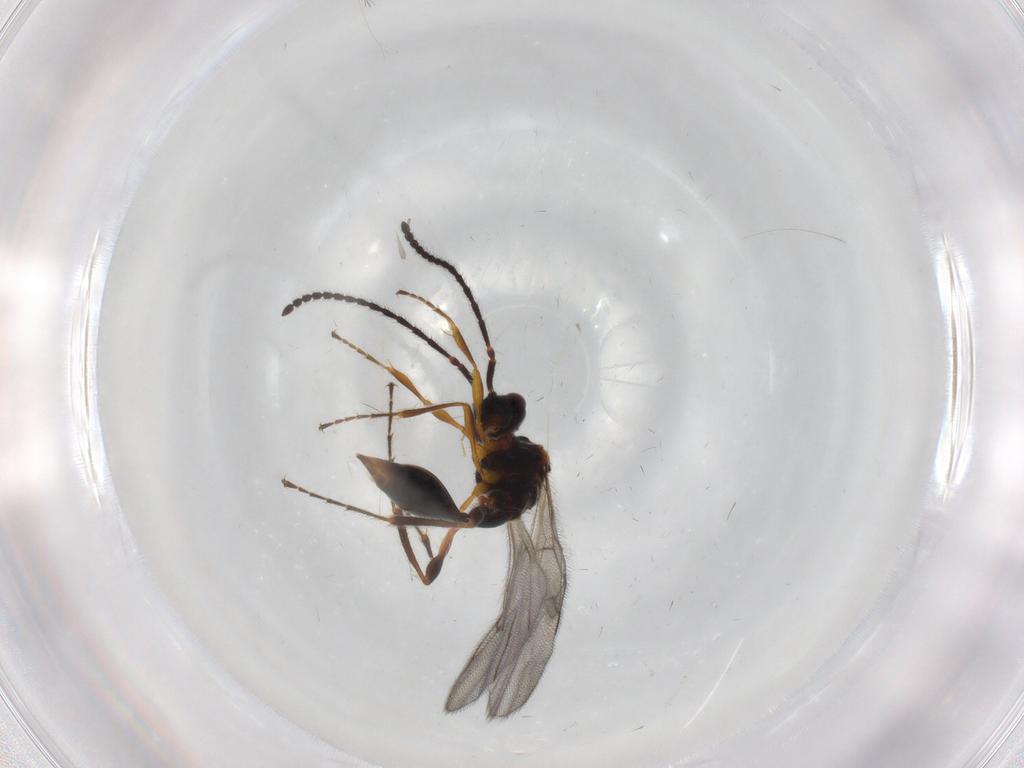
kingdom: Animalia
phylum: Arthropoda
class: Insecta
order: Hymenoptera
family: Diapriidae
